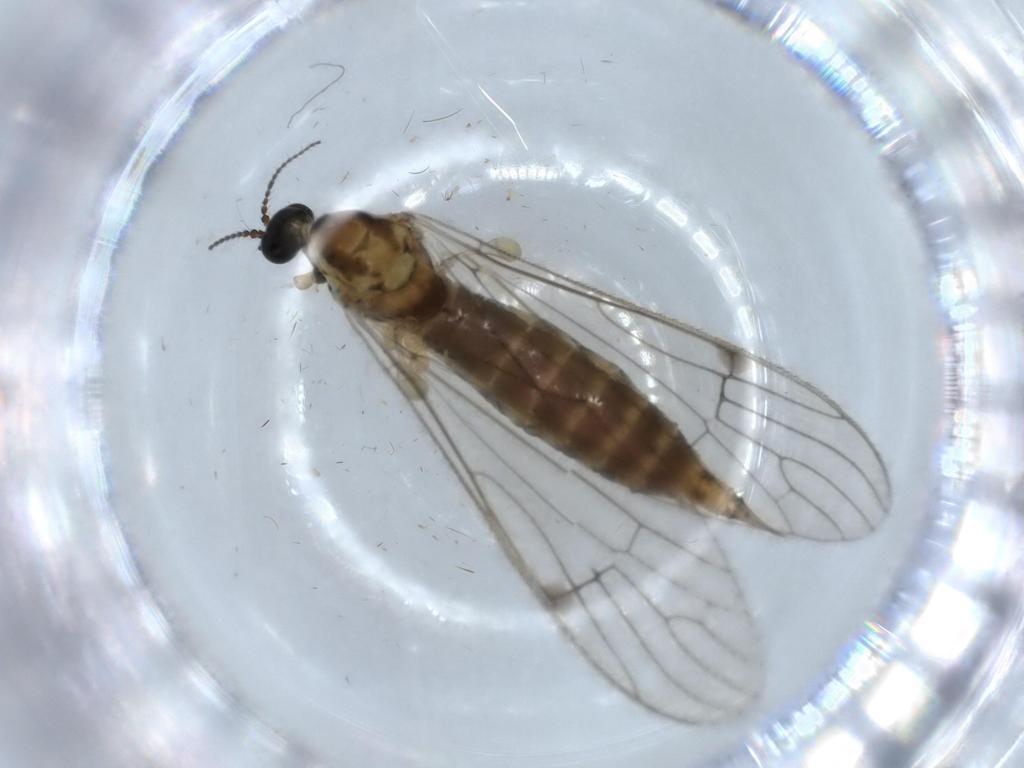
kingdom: Animalia
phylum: Arthropoda
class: Insecta
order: Diptera
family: Limoniidae
